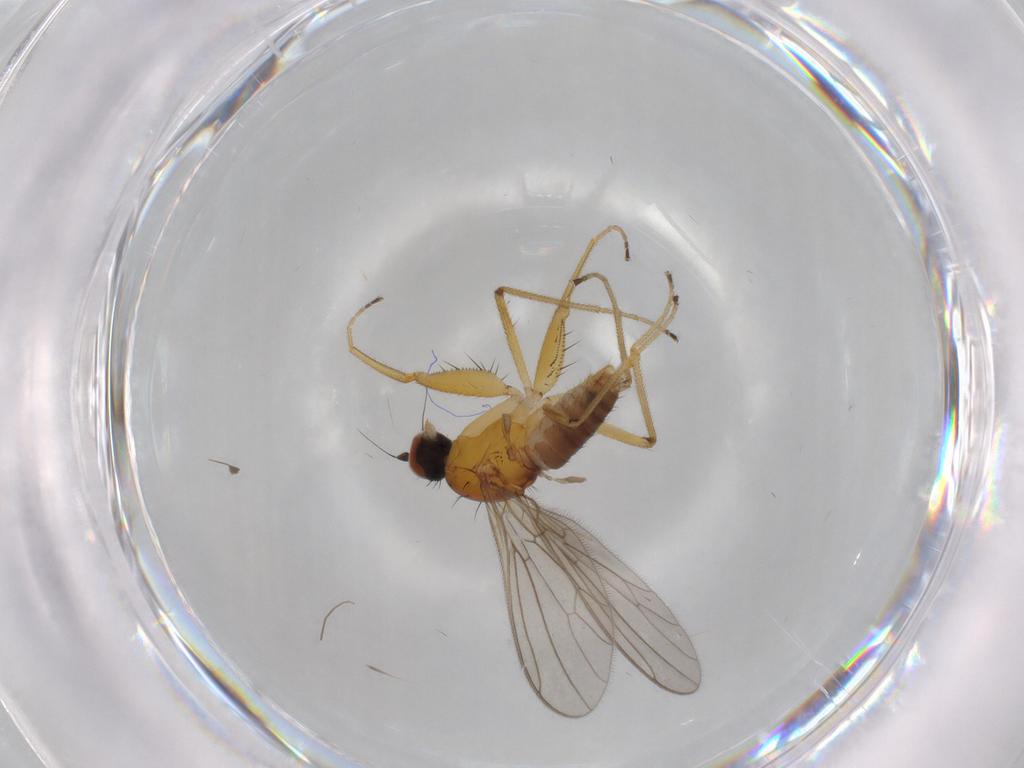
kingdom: Animalia
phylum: Arthropoda
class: Insecta
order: Diptera
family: Empididae
